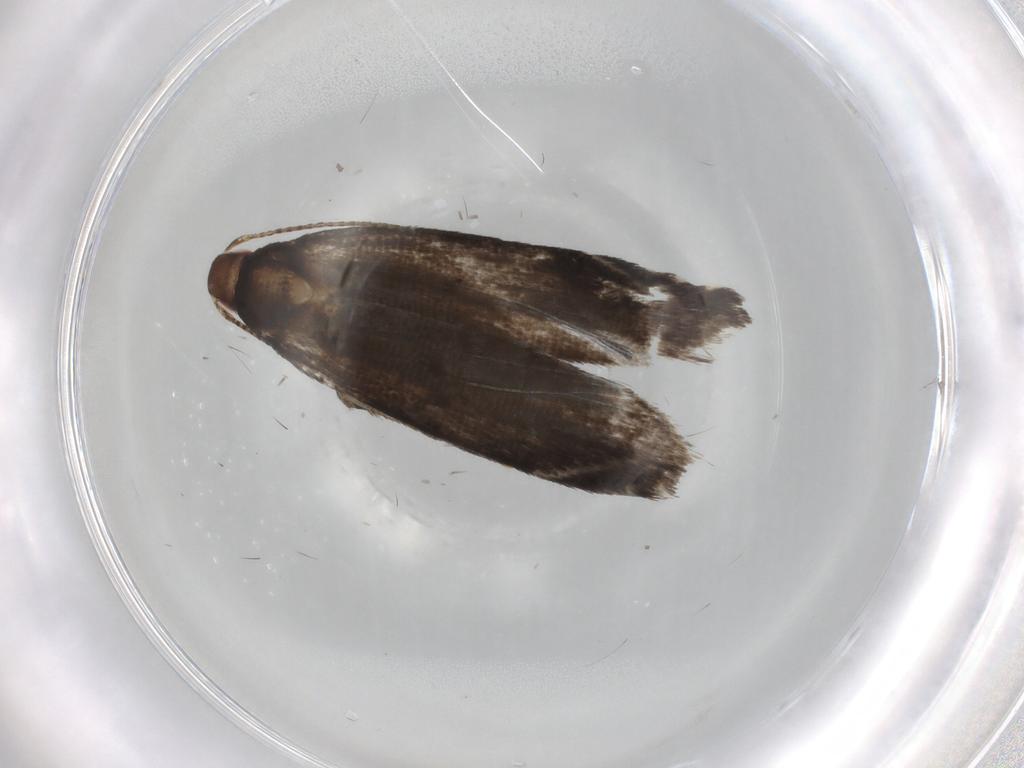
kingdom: Animalia
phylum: Arthropoda
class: Insecta
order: Lepidoptera
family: Gelechiidae
